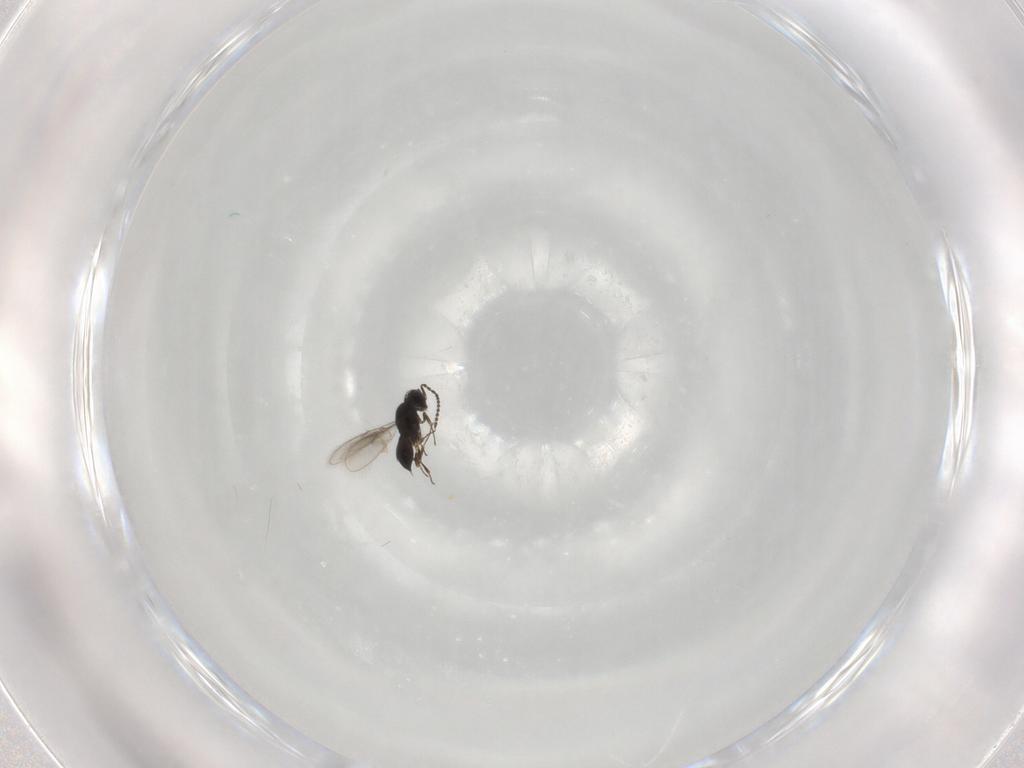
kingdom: Animalia
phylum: Arthropoda
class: Insecta
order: Hymenoptera
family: Scelionidae
